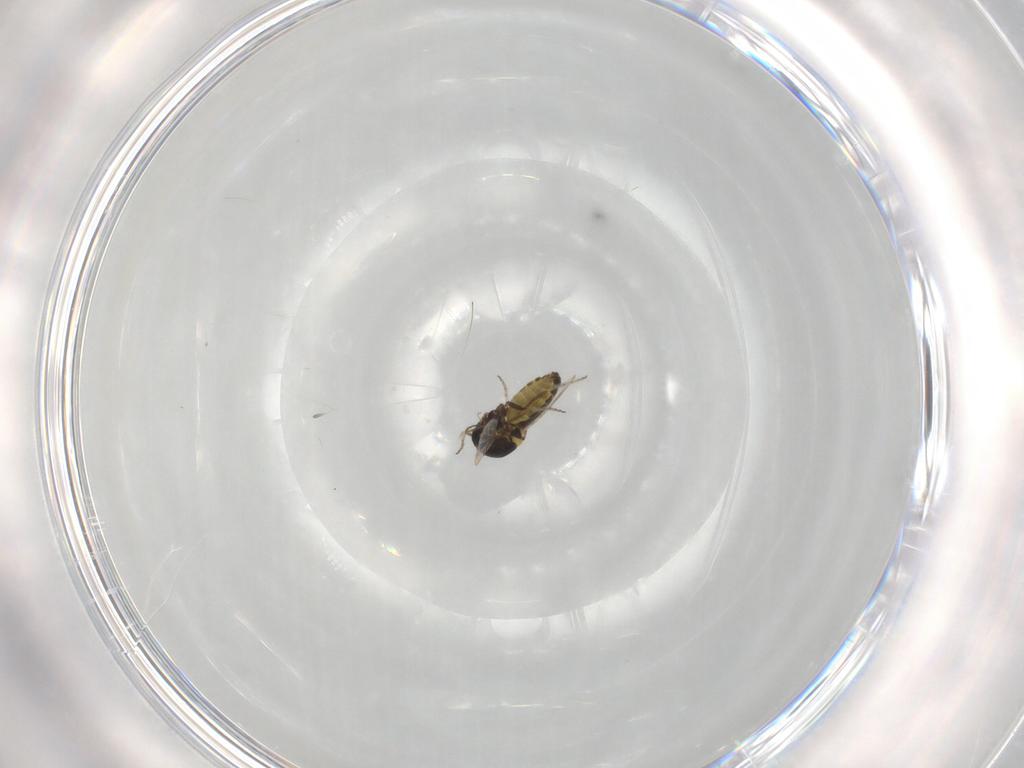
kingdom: Animalia
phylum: Arthropoda
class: Insecta
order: Diptera
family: Ceratopogonidae
